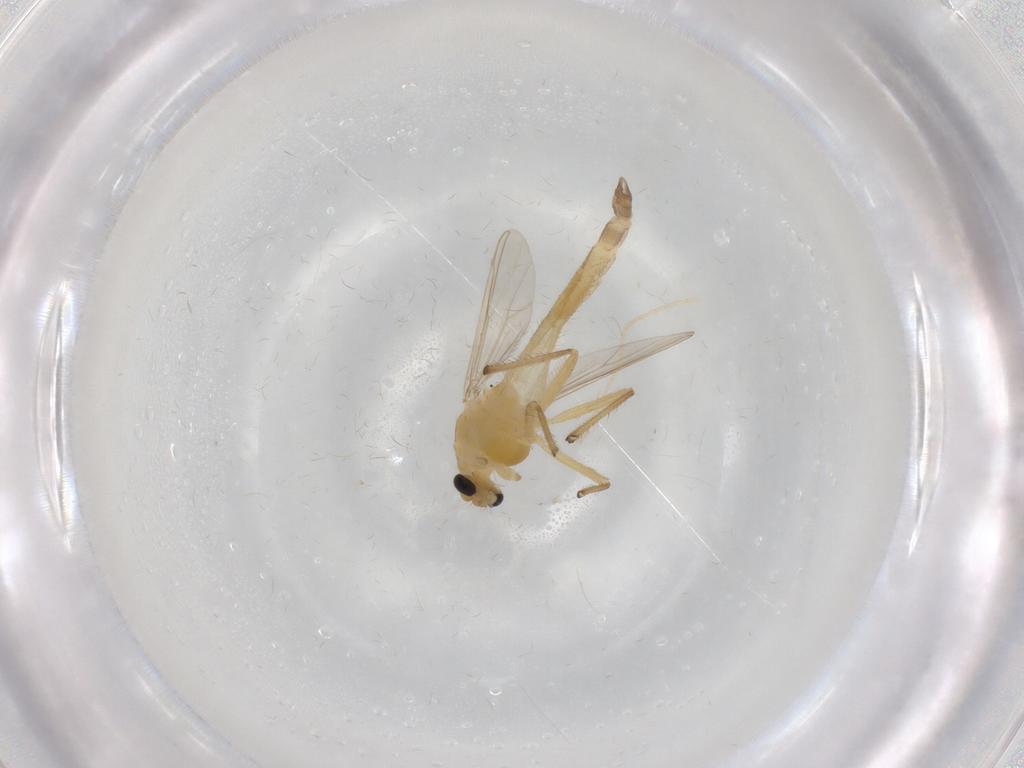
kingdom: Animalia
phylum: Arthropoda
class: Insecta
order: Diptera
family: Chironomidae
